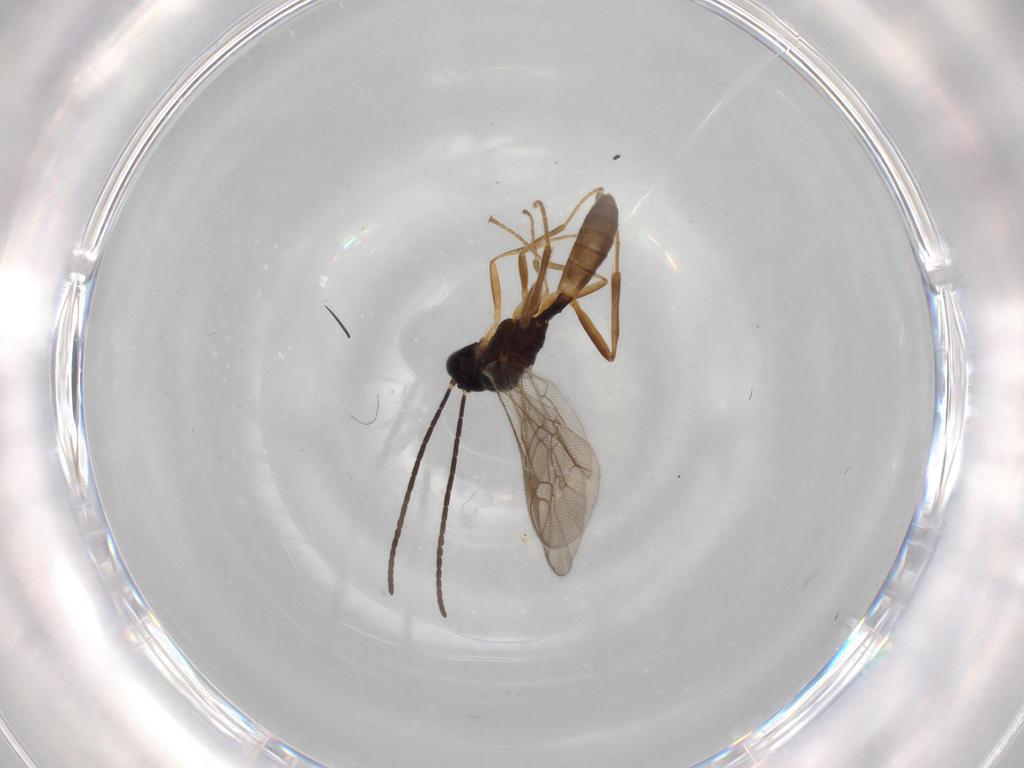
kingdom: Animalia
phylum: Arthropoda
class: Insecta
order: Hymenoptera
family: Ichneumonidae
